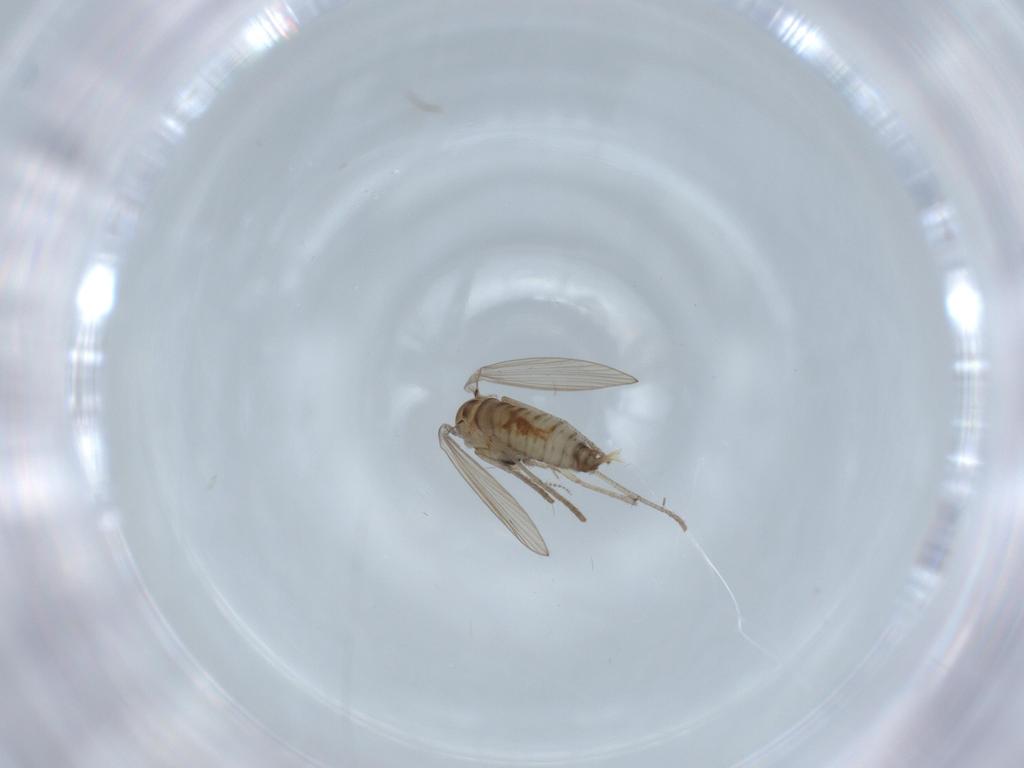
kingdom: Animalia
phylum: Arthropoda
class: Insecta
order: Diptera
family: Psychodidae
